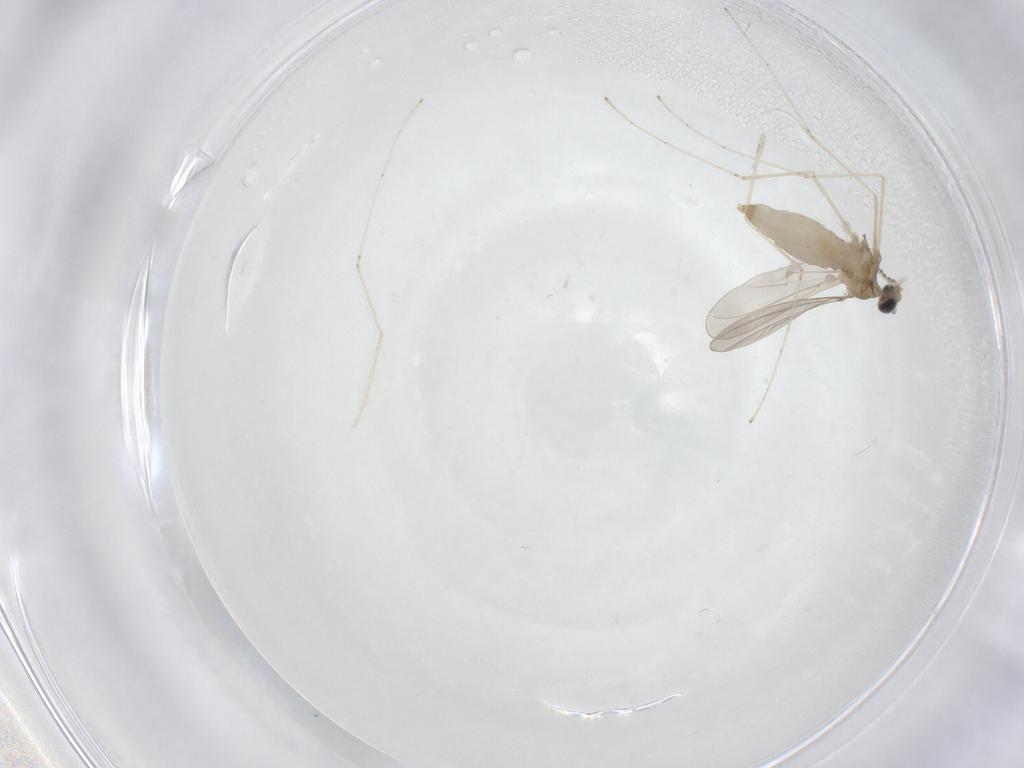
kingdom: Animalia
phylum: Arthropoda
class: Insecta
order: Diptera
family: Cecidomyiidae
